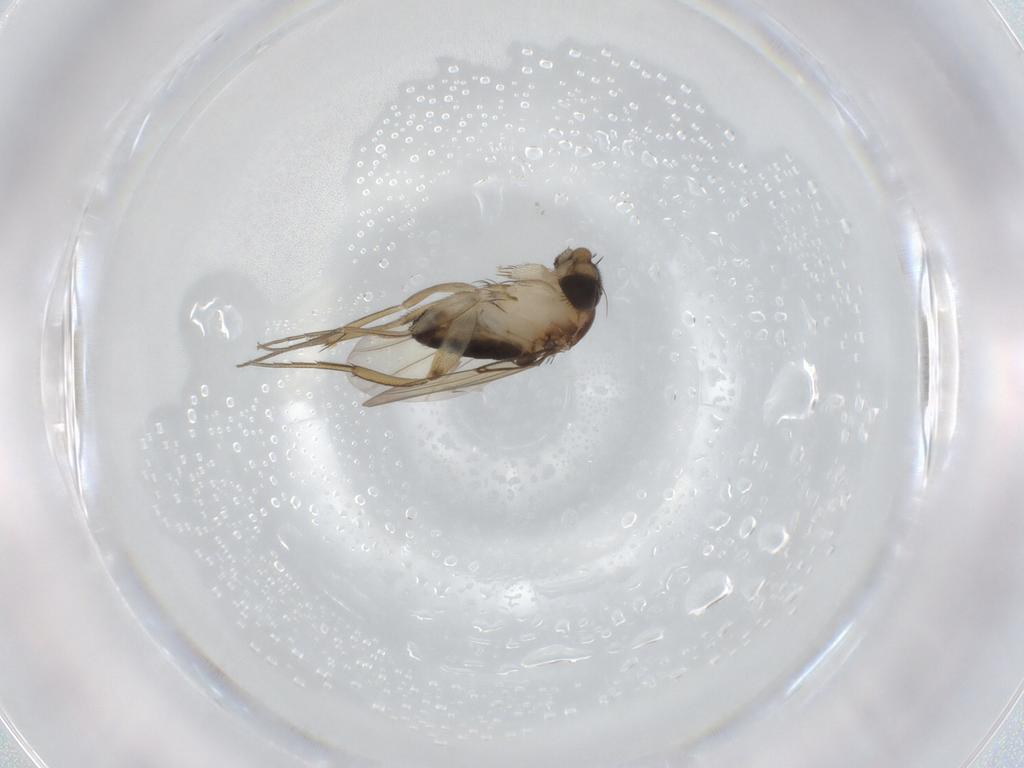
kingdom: Animalia
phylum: Arthropoda
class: Insecta
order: Diptera
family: Phoridae
